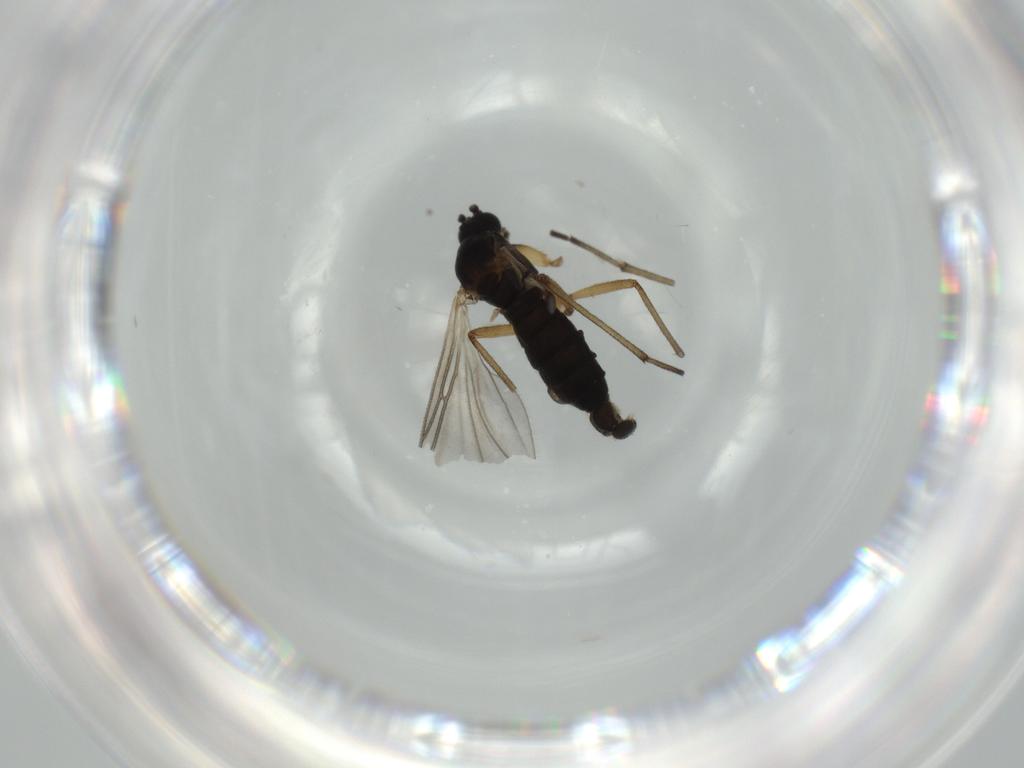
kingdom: Animalia
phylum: Arthropoda
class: Insecta
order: Diptera
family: Sciaridae
